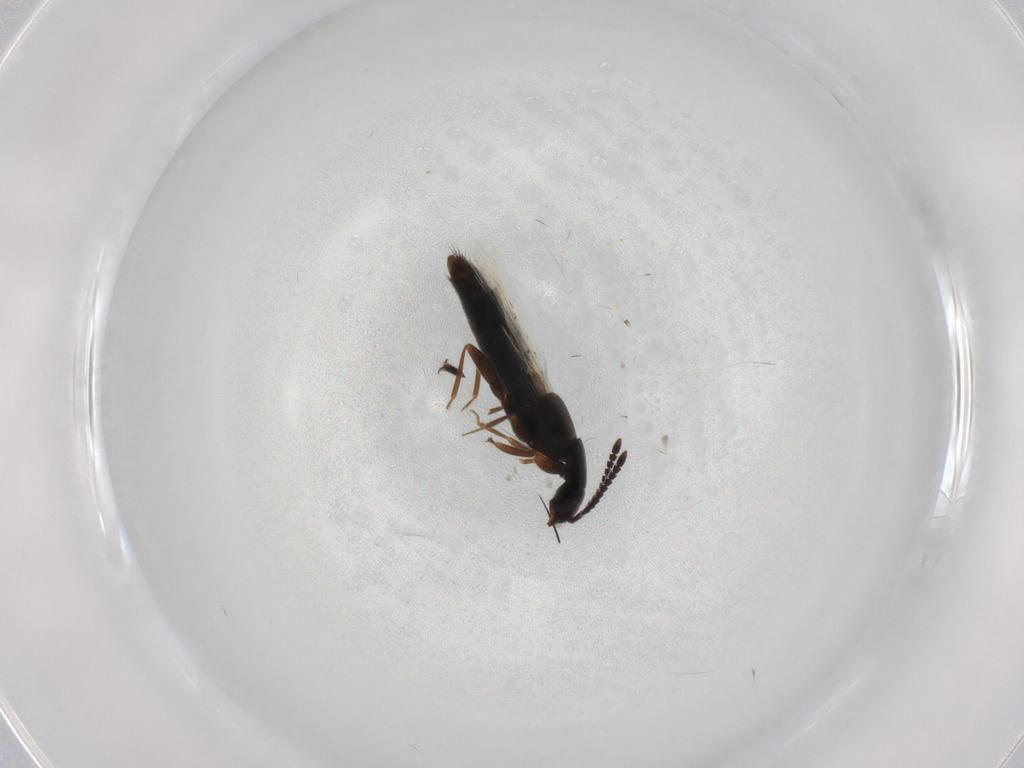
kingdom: Animalia
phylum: Arthropoda
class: Insecta
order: Coleoptera
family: Staphylinidae
